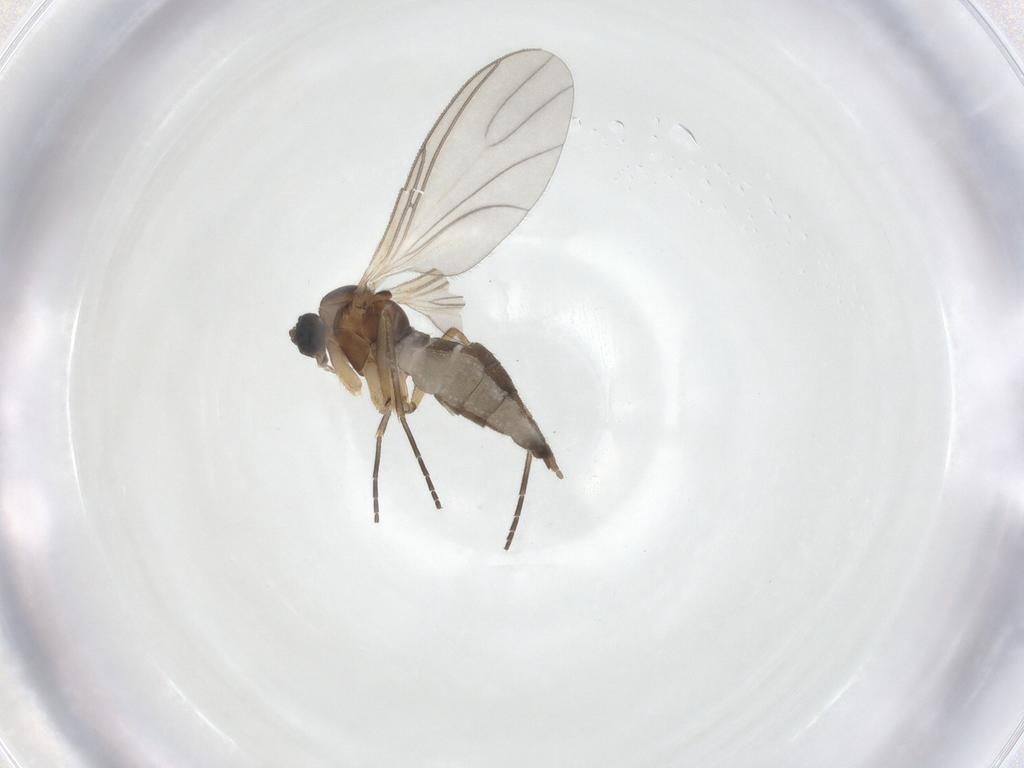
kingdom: Animalia
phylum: Arthropoda
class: Insecta
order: Diptera
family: Sciaridae
